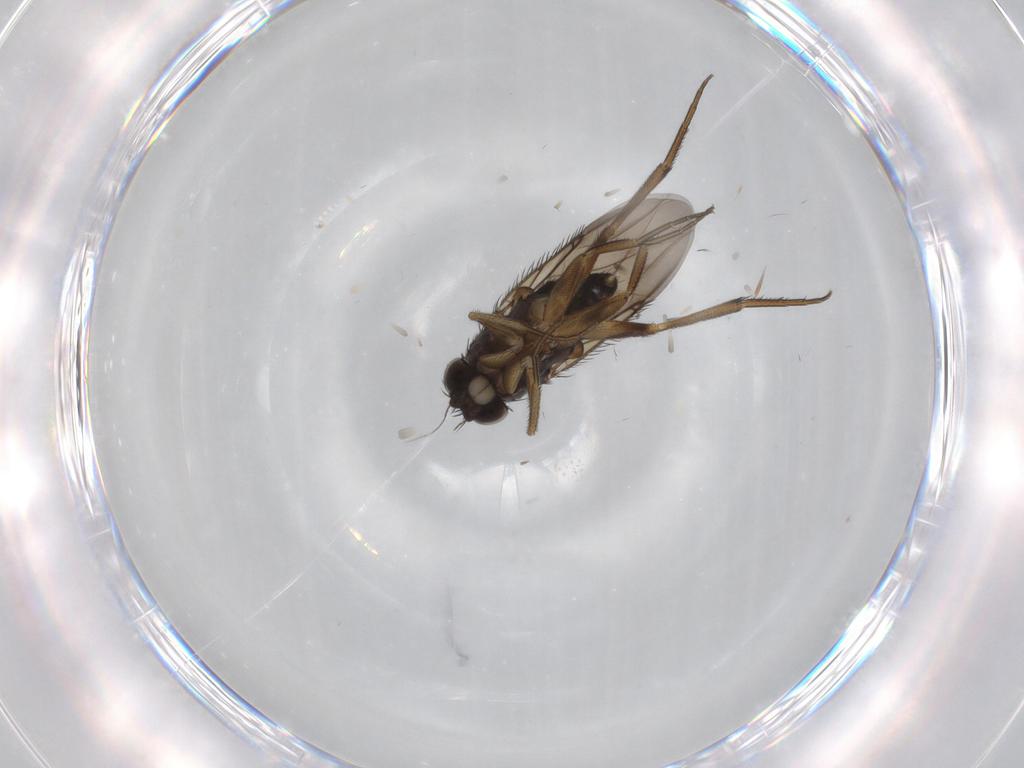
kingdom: Animalia
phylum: Arthropoda
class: Insecta
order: Diptera
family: Phoridae
